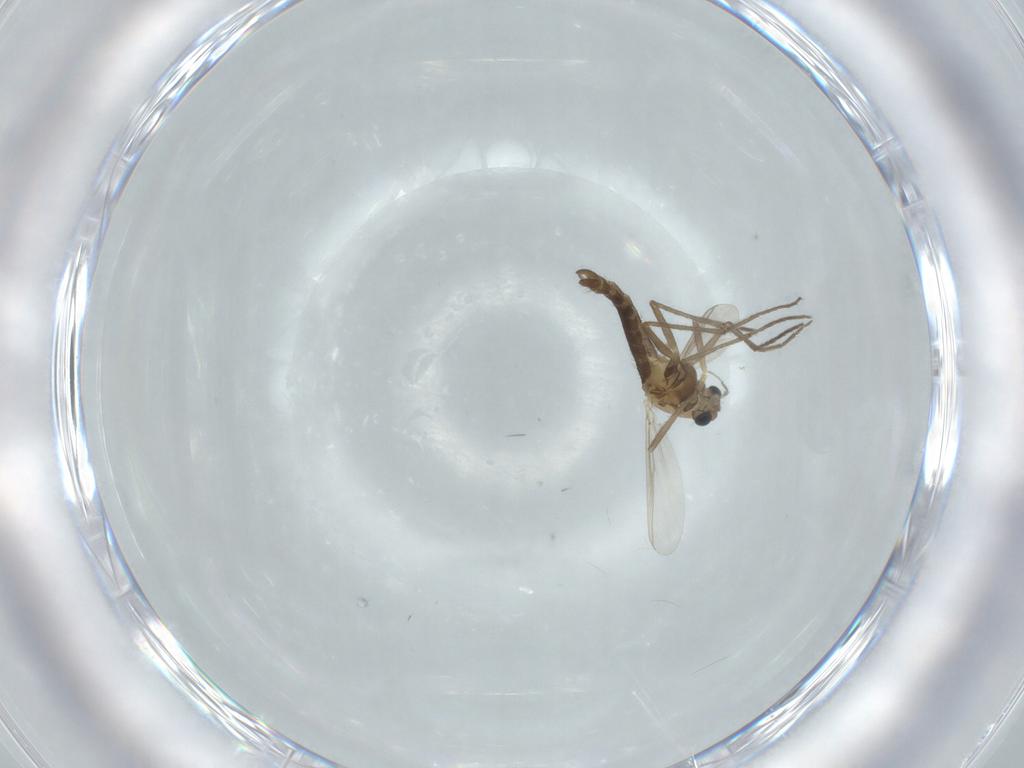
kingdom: Animalia
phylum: Arthropoda
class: Insecta
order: Diptera
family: Chironomidae
